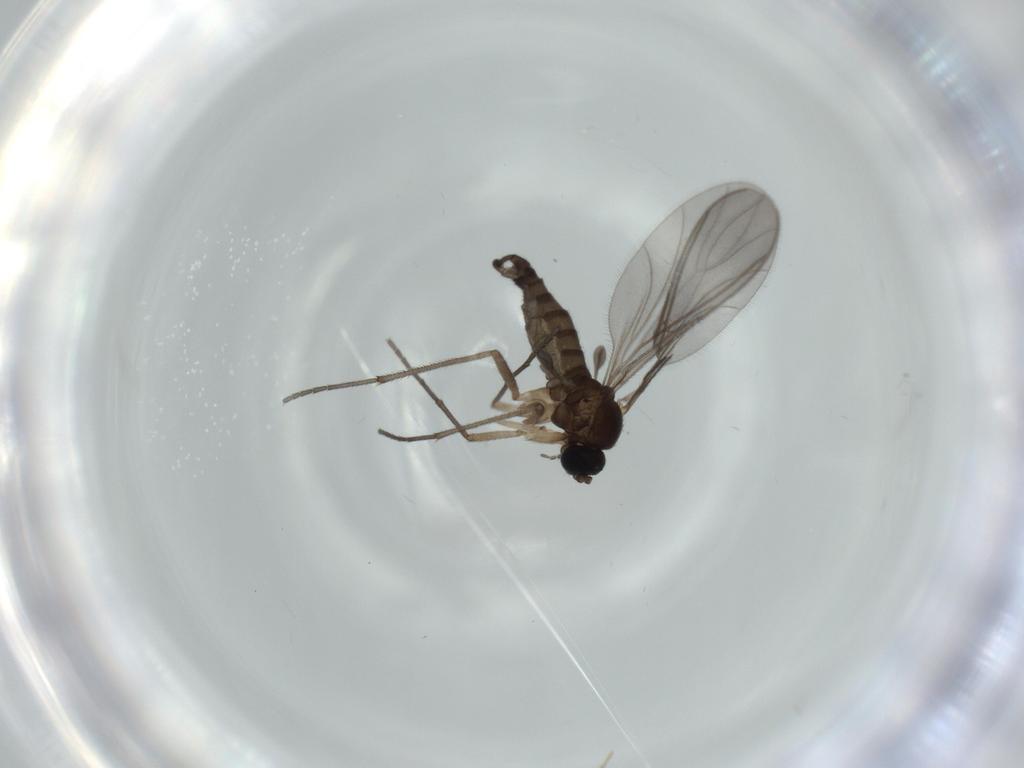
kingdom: Animalia
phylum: Arthropoda
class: Insecta
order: Diptera
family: Sciaridae
